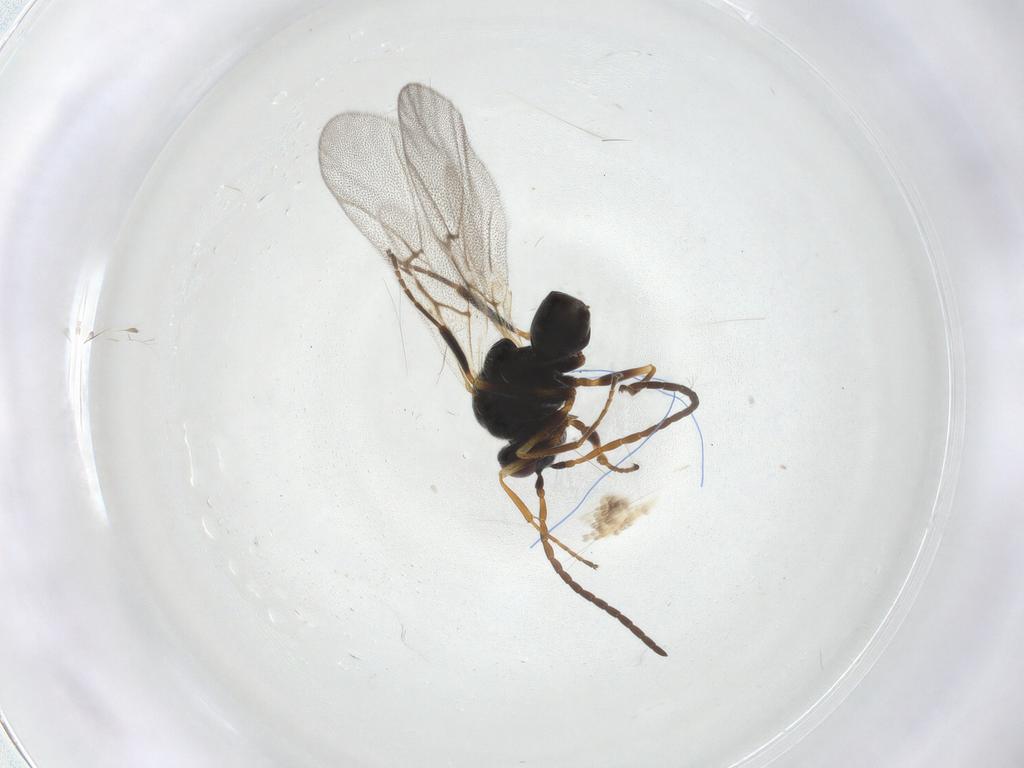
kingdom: Animalia
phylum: Arthropoda
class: Insecta
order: Hymenoptera
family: Cynipidae
